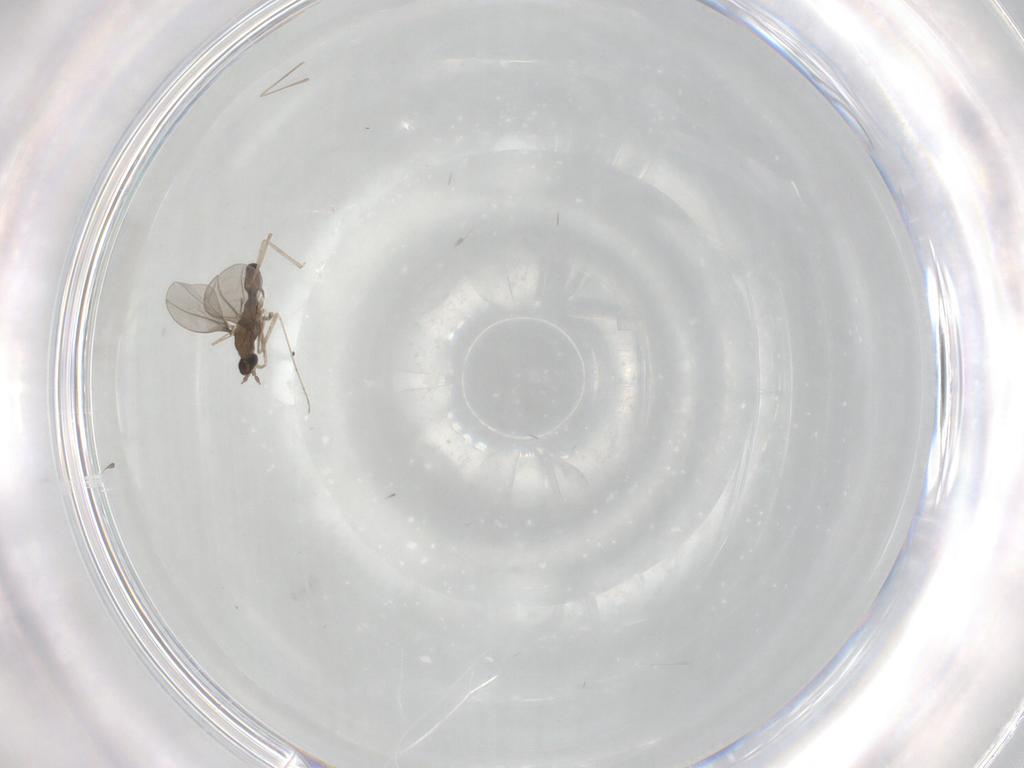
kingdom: Animalia
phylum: Arthropoda
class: Insecta
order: Diptera
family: Cecidomyiidae
